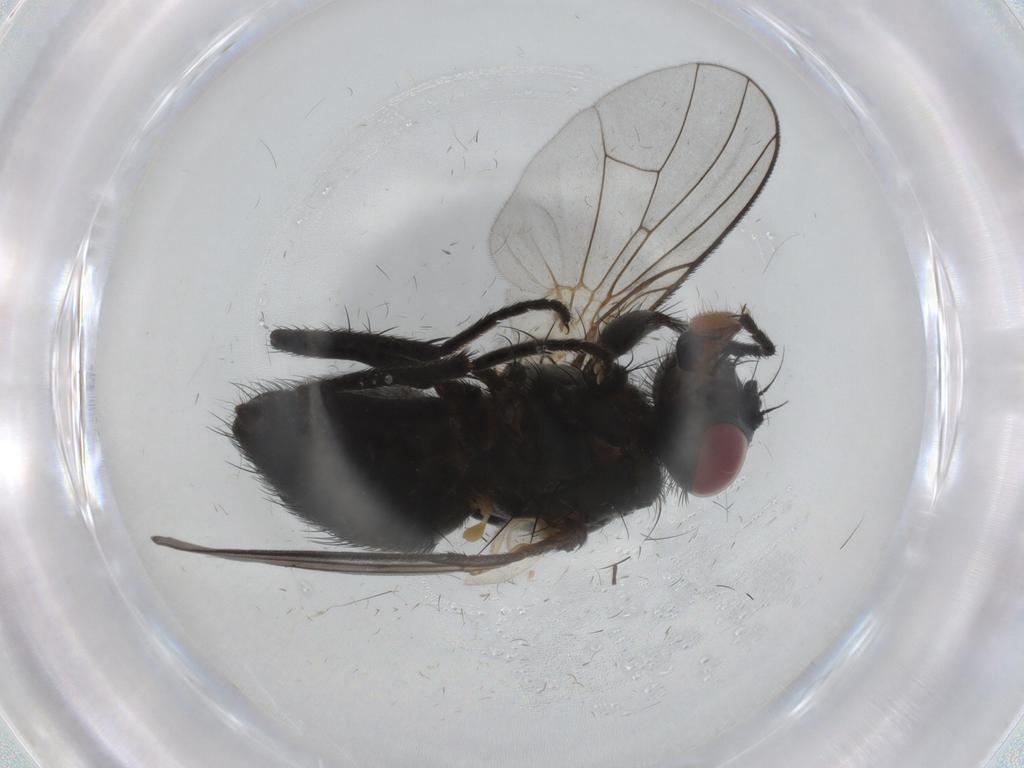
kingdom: Animalia
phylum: Arthropoda
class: Insecta
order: Diptera
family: Muscidae
